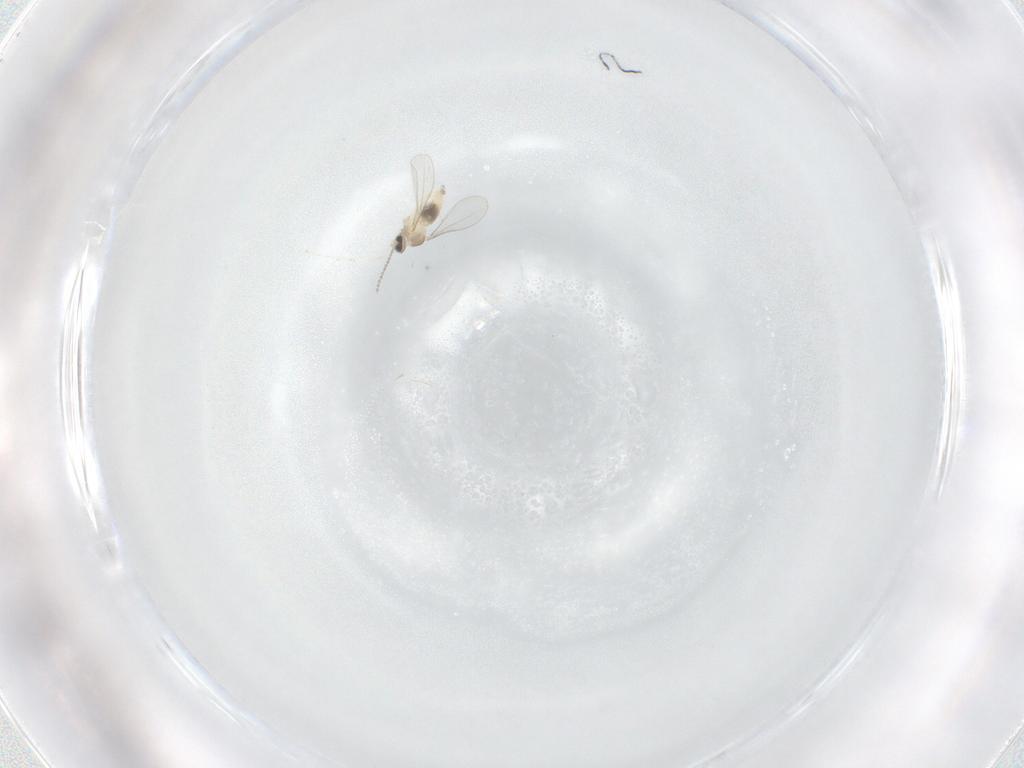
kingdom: Animalia
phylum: Arthropoda
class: Insecta
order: Diptera
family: Cecidomyiidae
